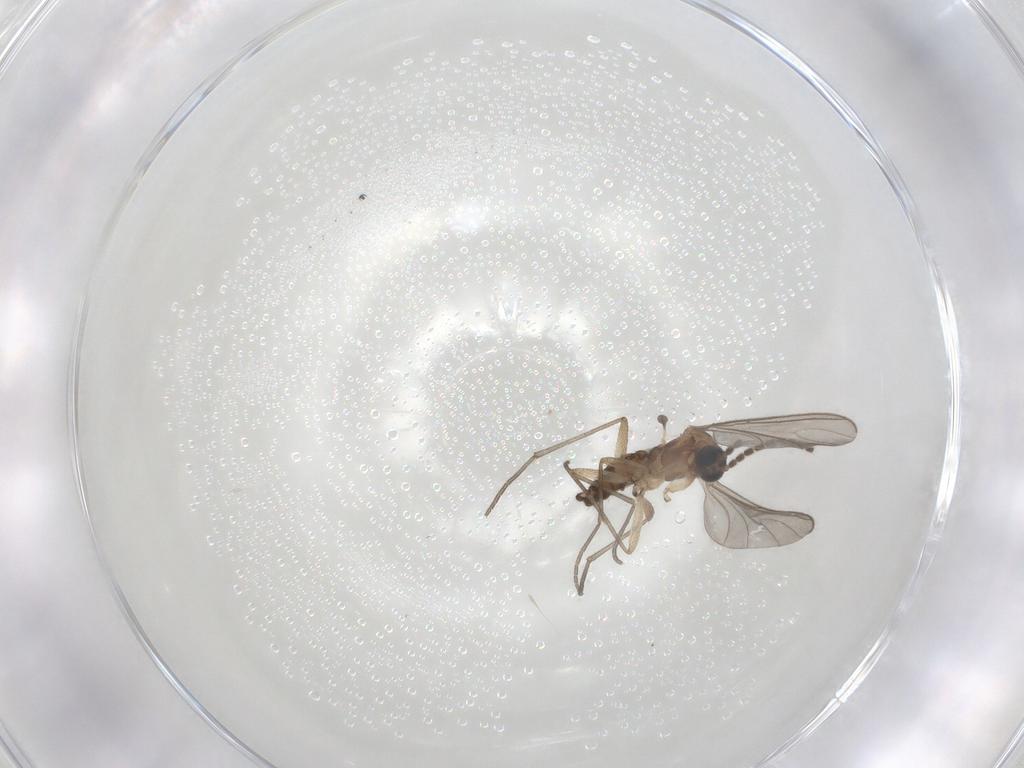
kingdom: Animalia
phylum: Arthropoda
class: Insecta
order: Diptera
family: Sciaridae
